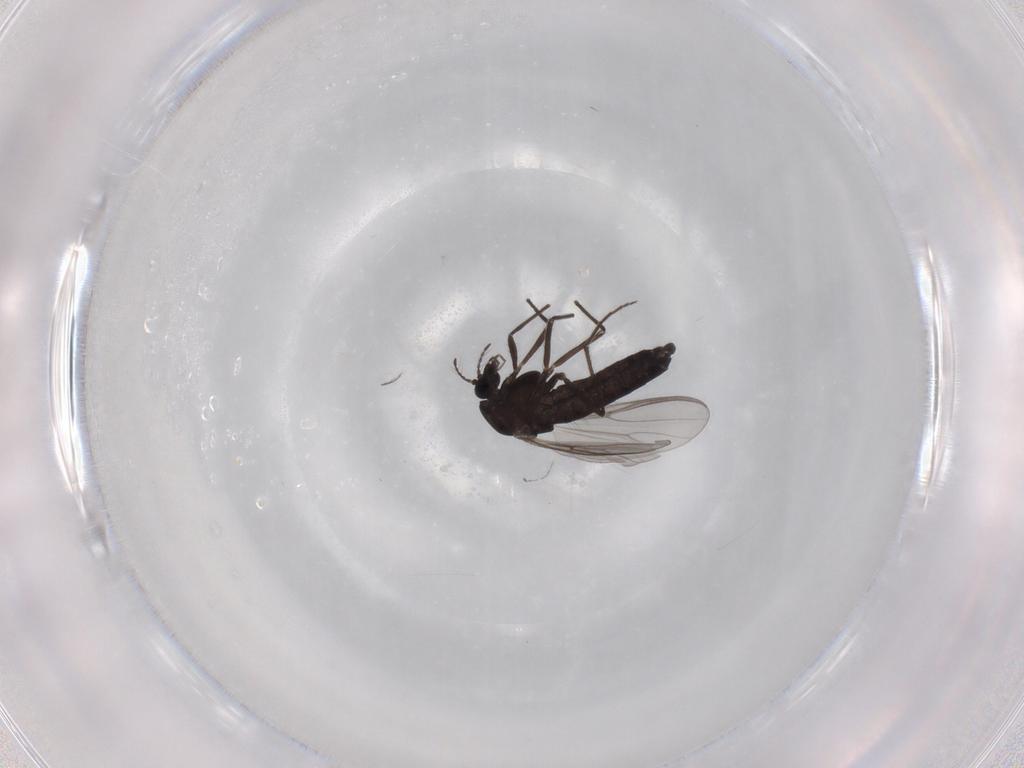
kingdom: Animalia
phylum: Arthropoda
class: Insecta
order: Diptera
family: Chironomidae
